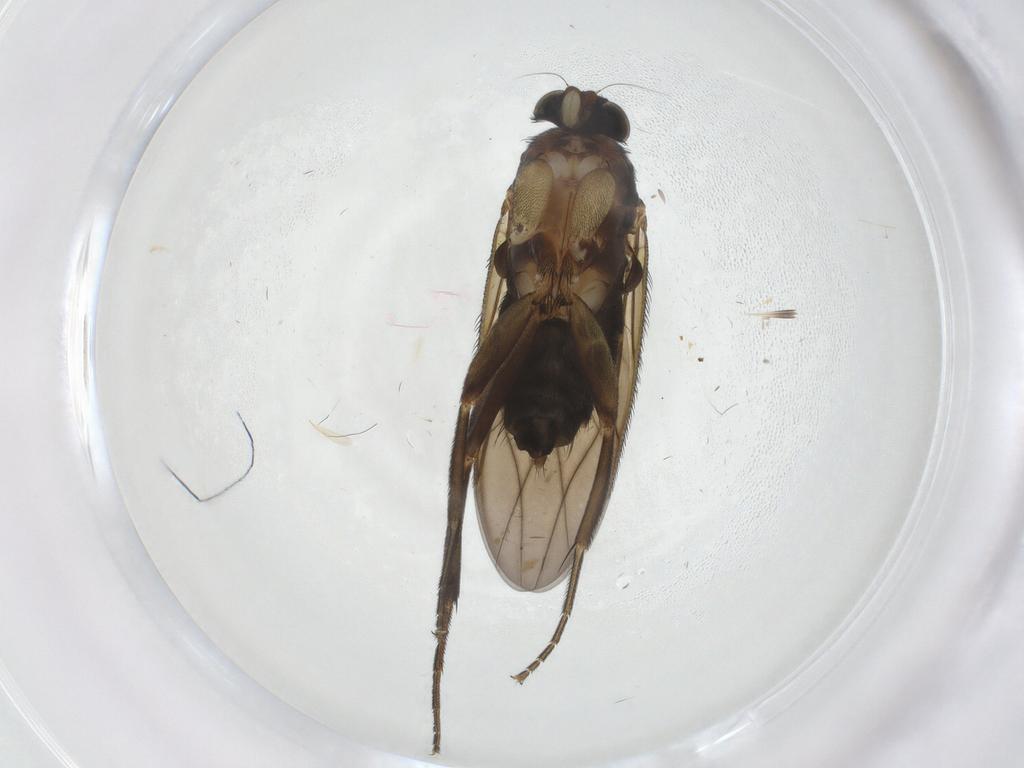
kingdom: Animalia
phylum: Arthropoda
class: Insecta
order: Diptera
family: Limoniidae
